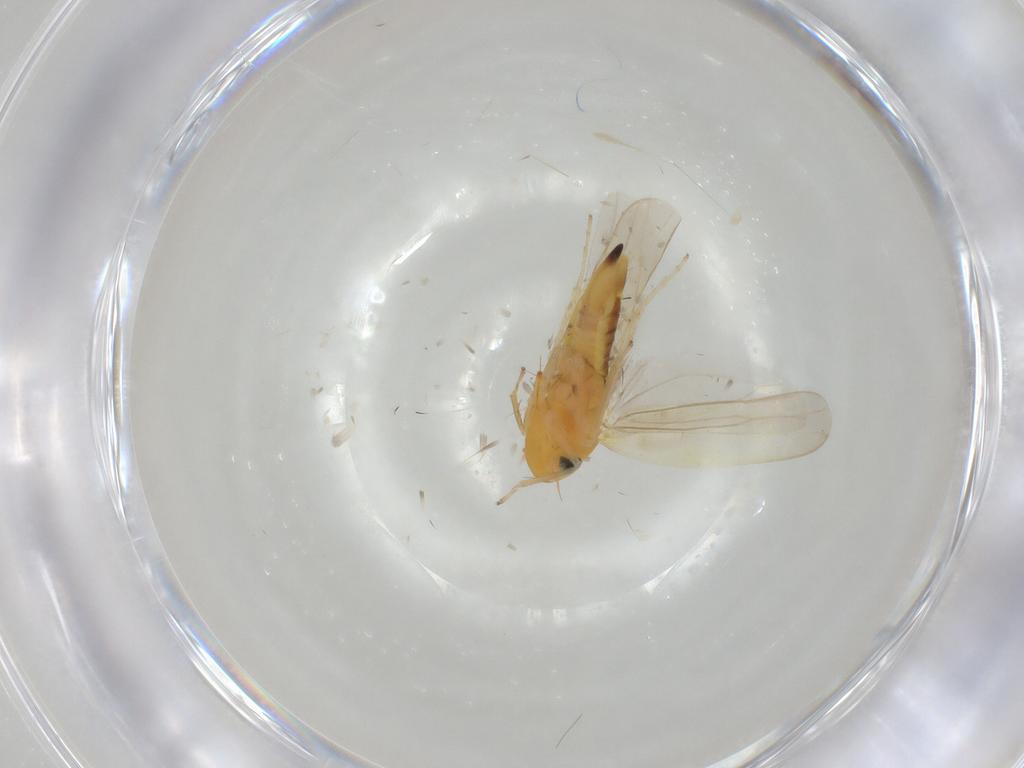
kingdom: Animalia
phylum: Arthropoda
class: Insecta
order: Hemiptera
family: Cicadellidae
